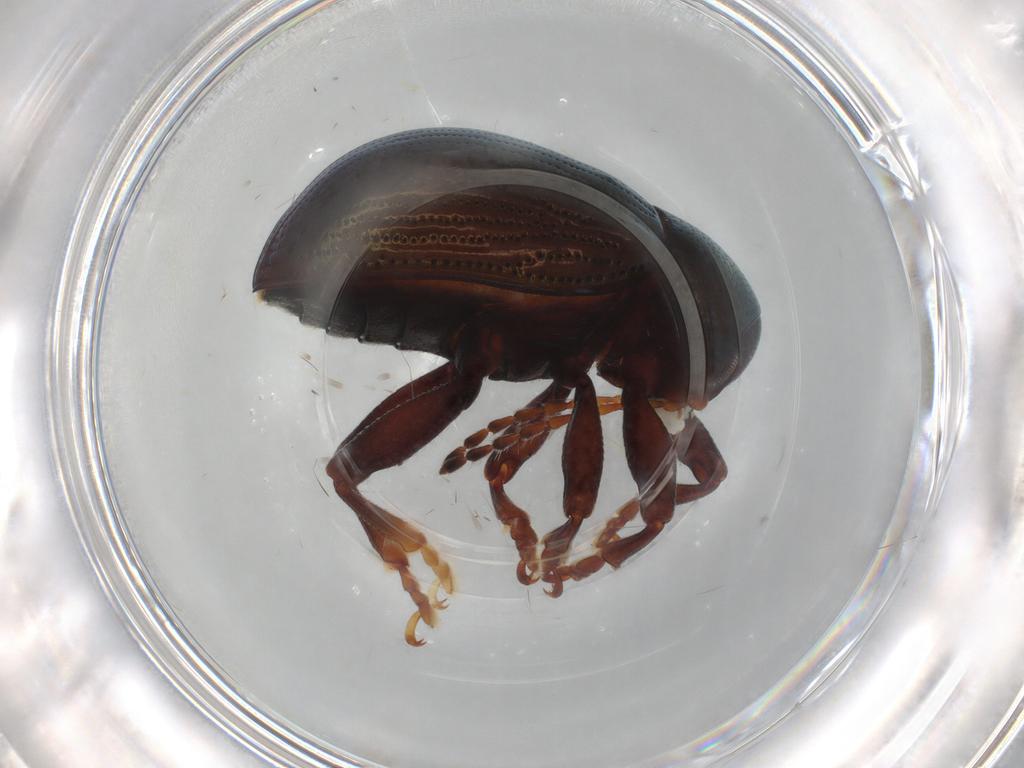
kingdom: Animalia
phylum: Arthropoda
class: Insecta
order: Coleoptera
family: Chrysomelidae
